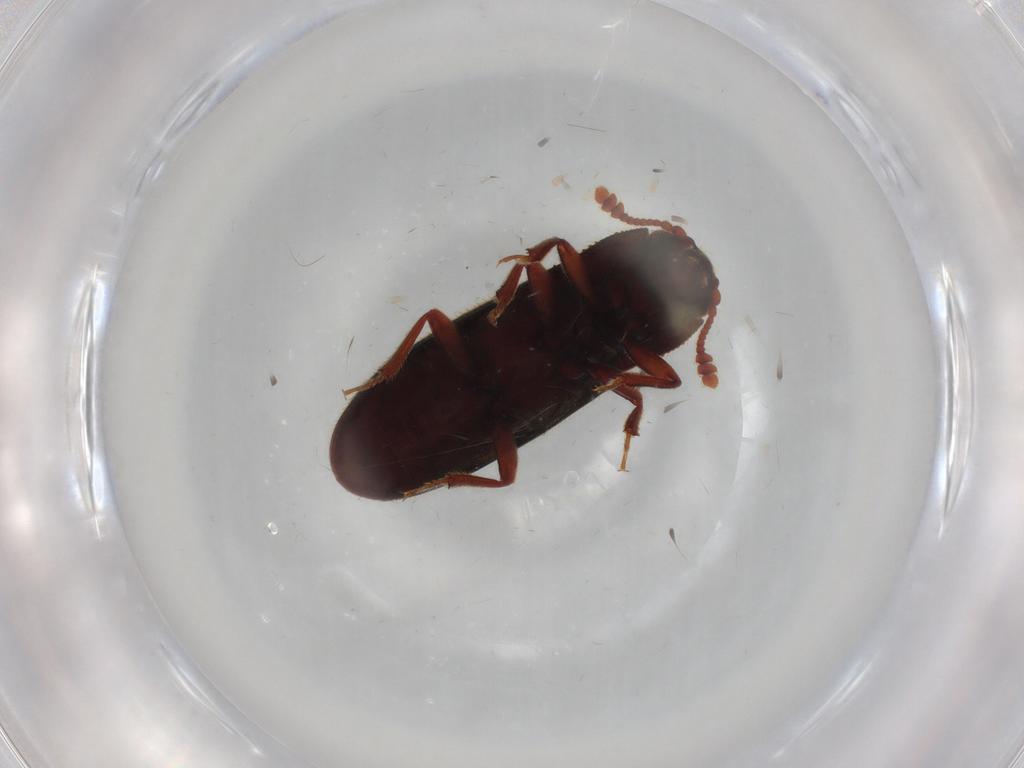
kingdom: Animalia
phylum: Arthropoda
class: Insecta
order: Coleoptera
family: Biphyllidae
